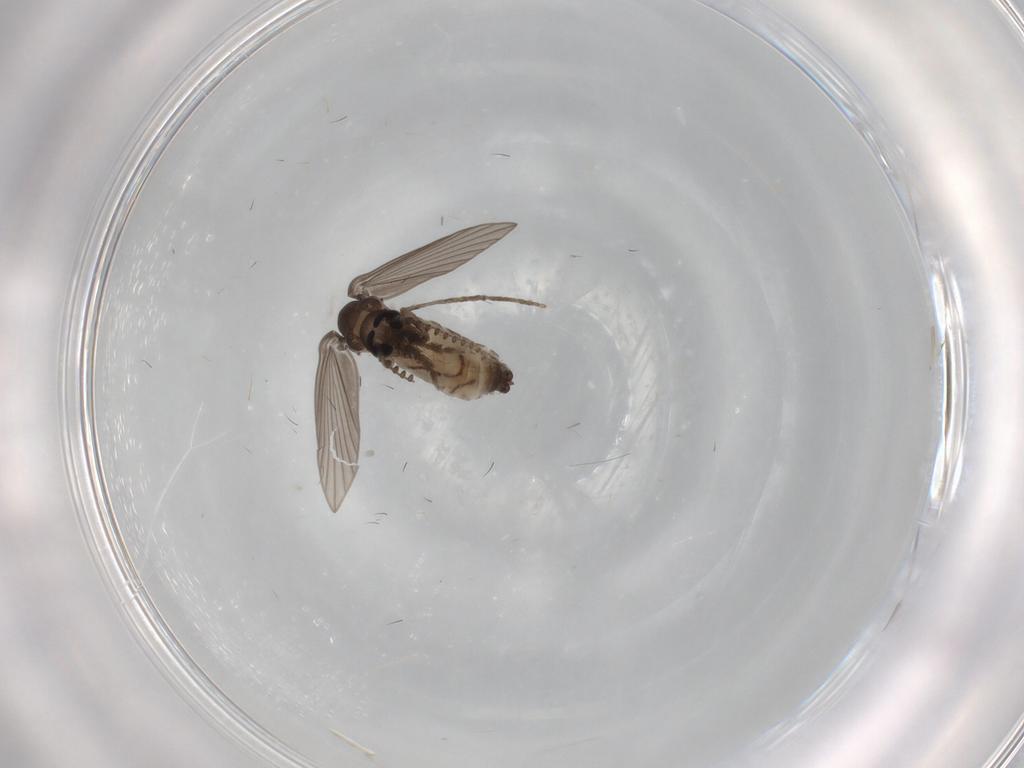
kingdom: Animalia
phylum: Arthropoda
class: Insecta
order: Diptera
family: Psychodidae
